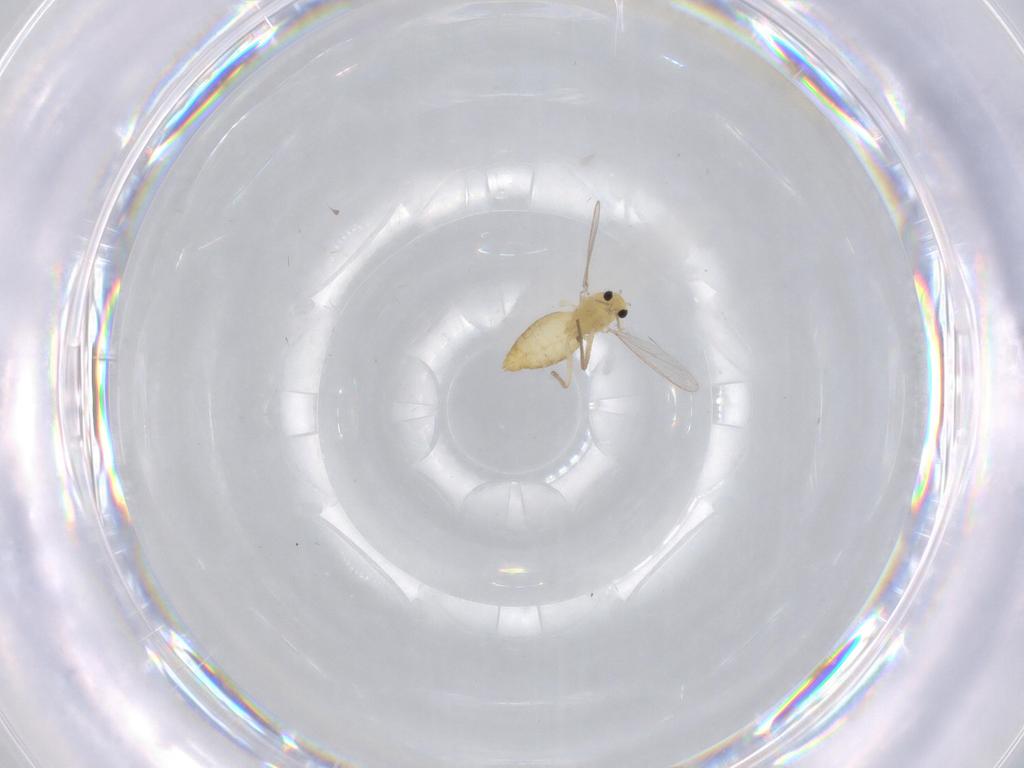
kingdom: Animalia
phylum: Arthropoda
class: Insecta
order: Diptera
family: Chironomidae
